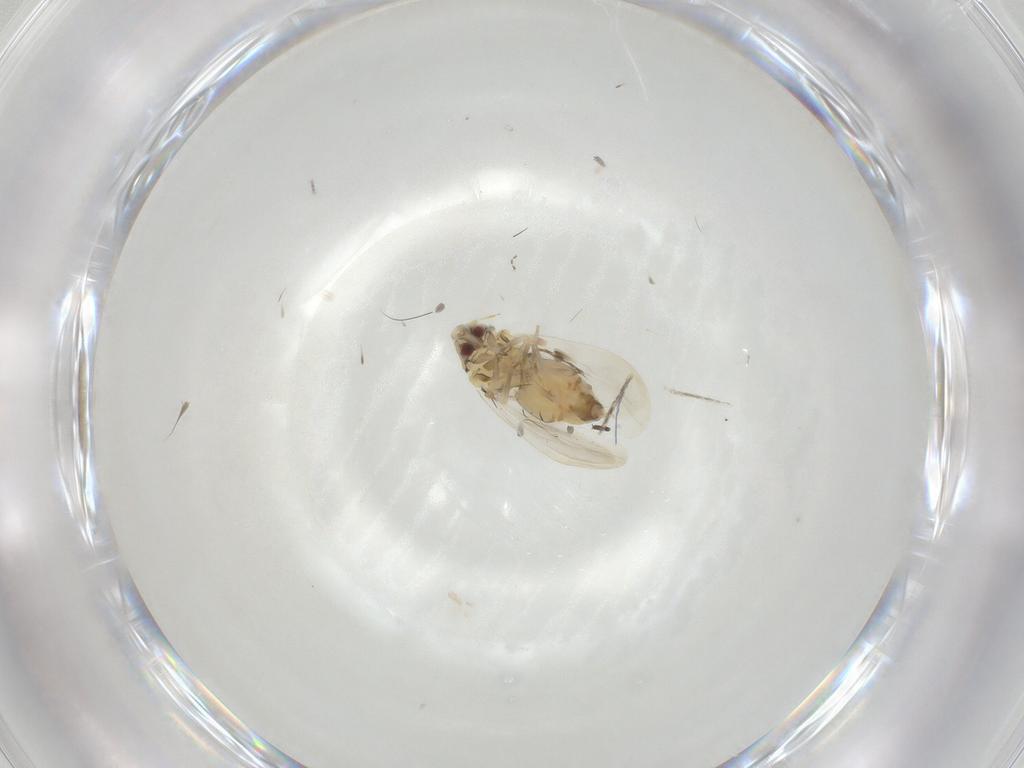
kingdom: Animalia
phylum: Arthropoda
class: Insecta
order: Hemiptera
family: Aleyrodidae
